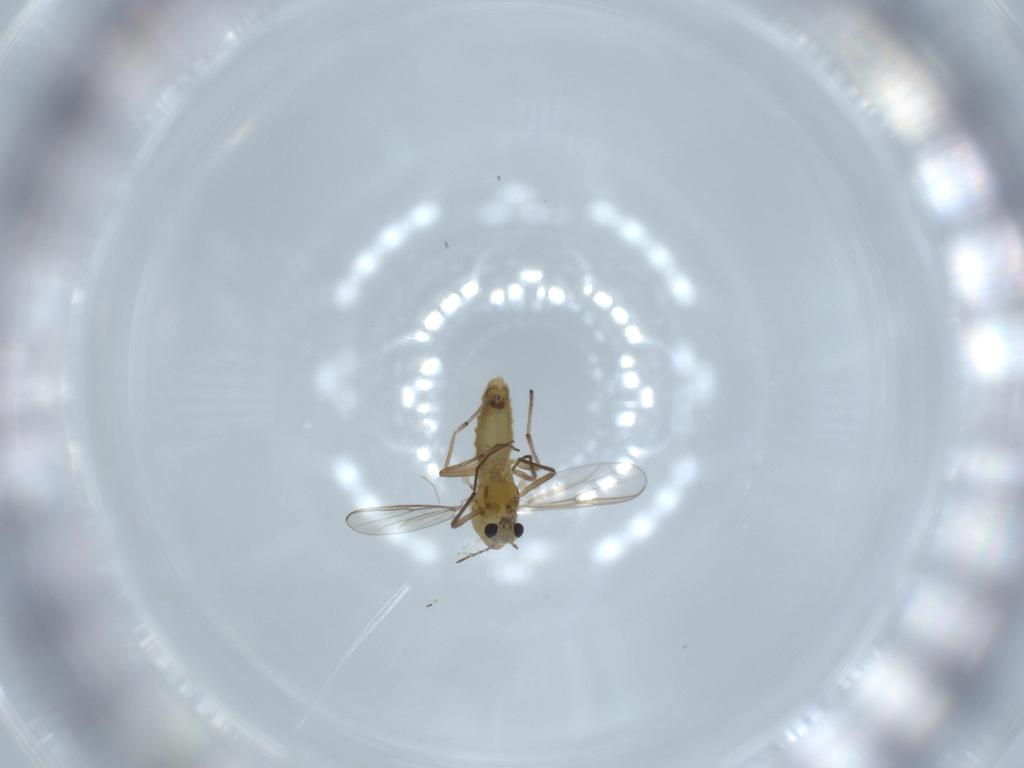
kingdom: Animalia
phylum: Arthropoda
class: Insecta
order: Diptera
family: Chironomidae
